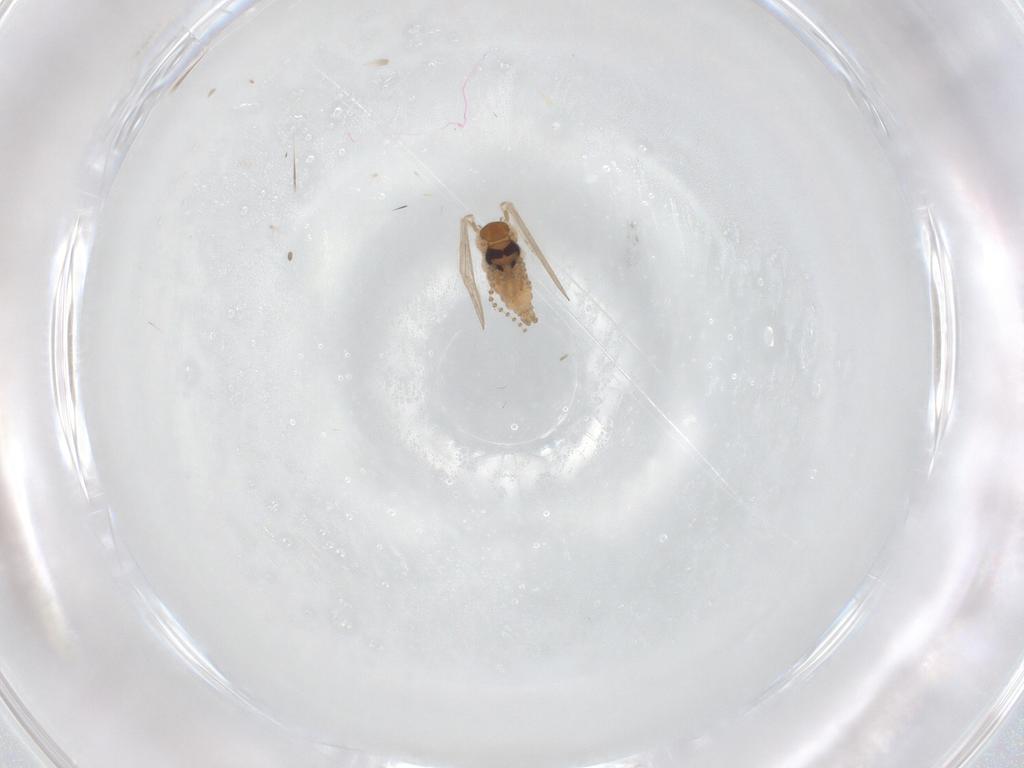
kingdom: Animalia
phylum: Arthropoda
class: Insecta
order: Diptera
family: Psychodidae
